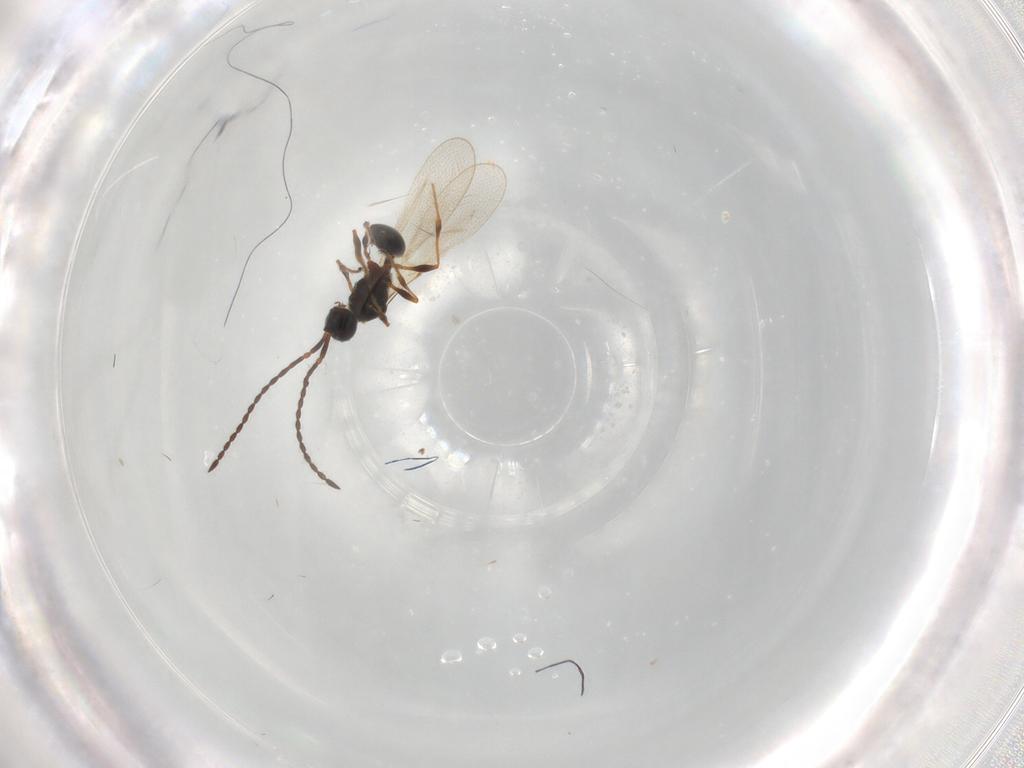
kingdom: Animalia
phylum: Arthropoda
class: Insecta
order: Hymenoptera
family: Diapriidae
